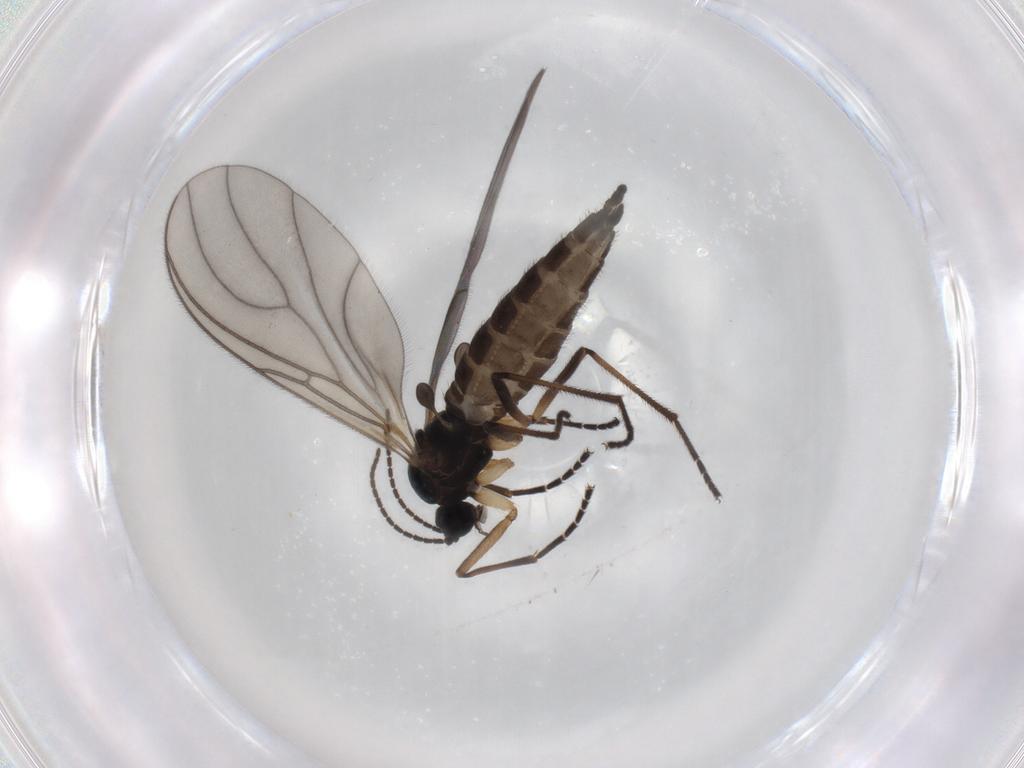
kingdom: Animalia
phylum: Arthropoda
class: Insecta
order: Diptera
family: Sciaridae
